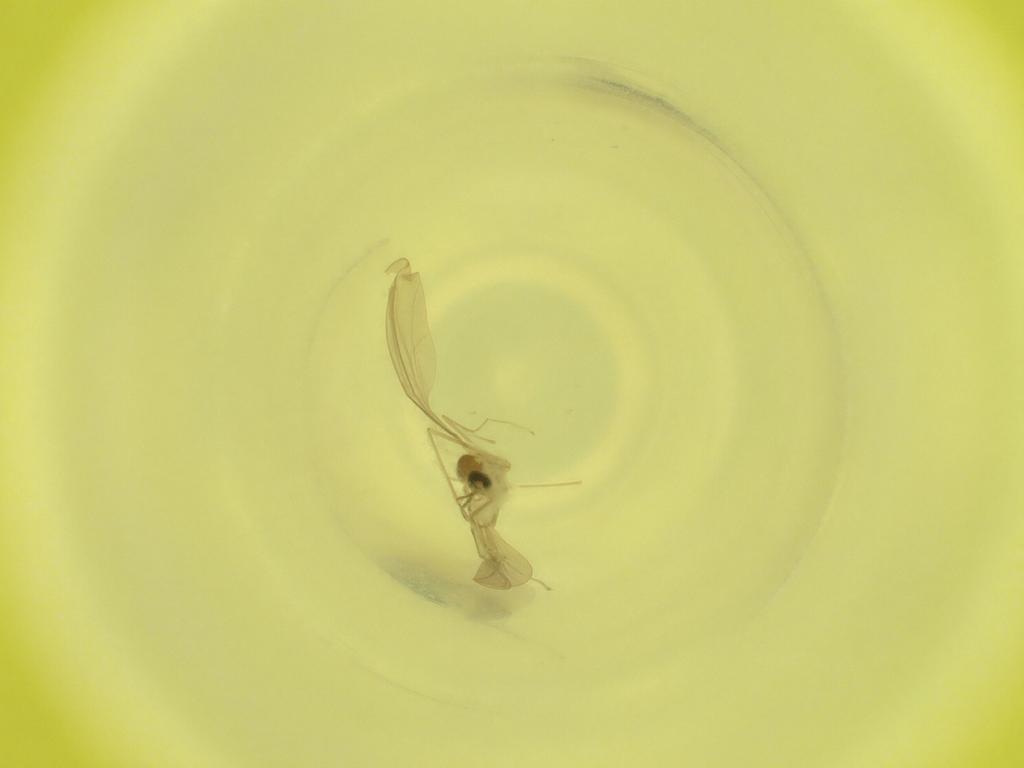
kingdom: Animalia
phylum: Arthropoda
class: Insecta
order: Diptera
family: Cecidomyiidae
